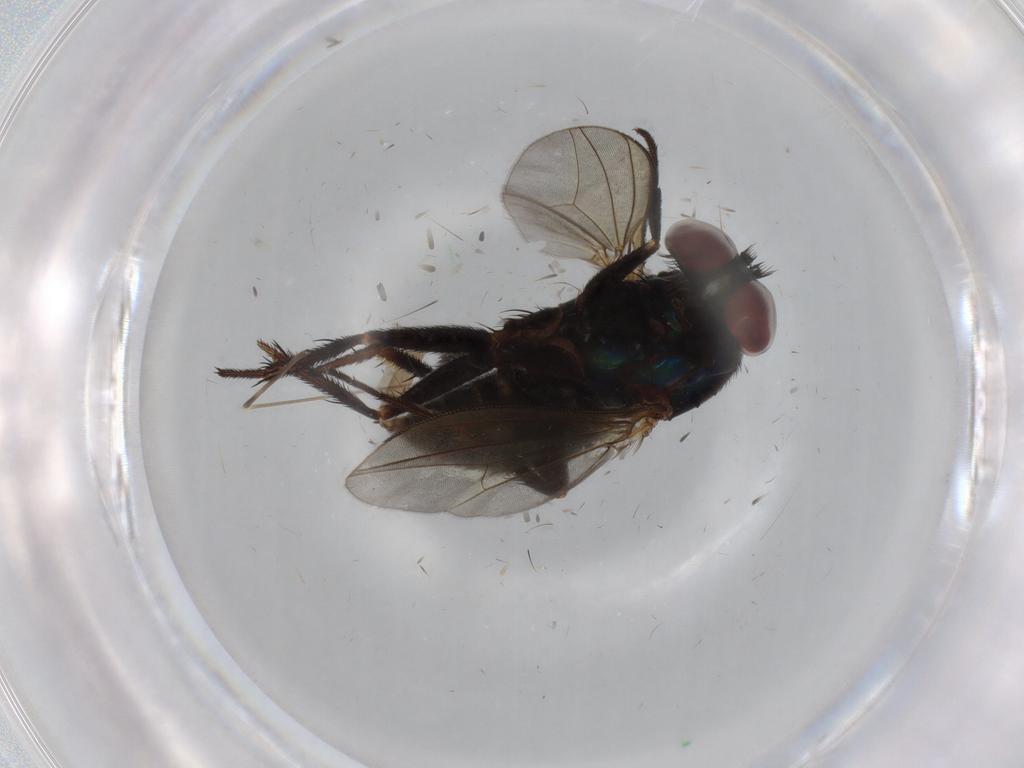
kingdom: Animalia
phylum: Arthropoda
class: Insecta
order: Diptera
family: Dolichopodidae
